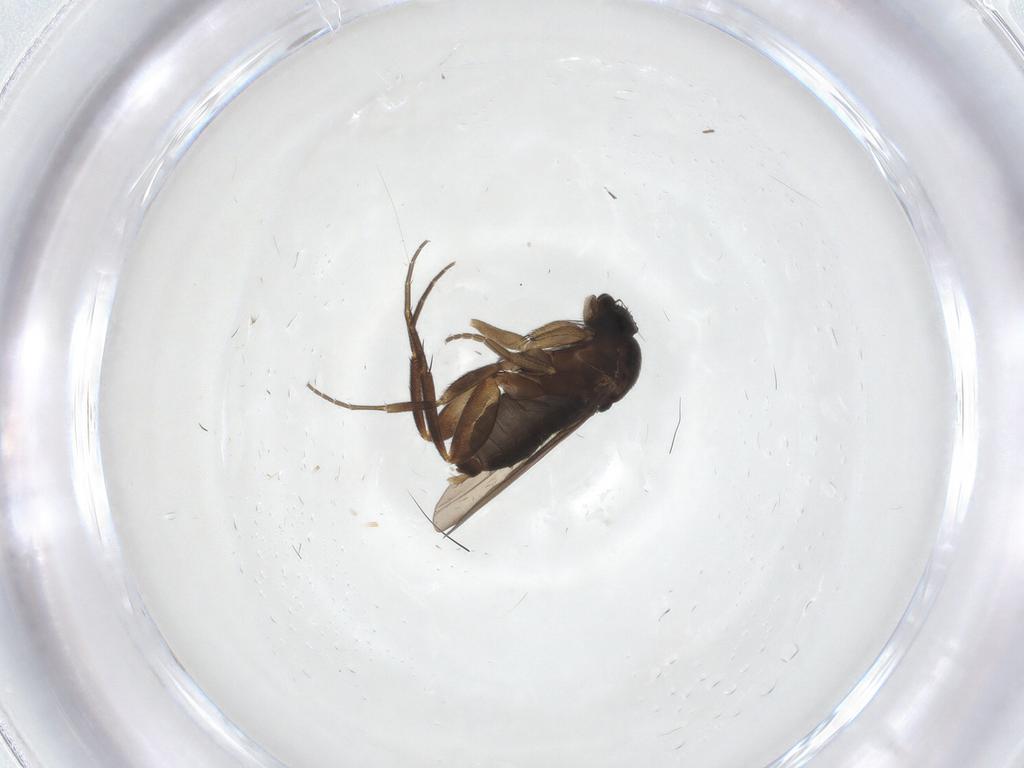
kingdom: Animalia
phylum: Arthropoda
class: Insecta
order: Diptera
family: Phoridae
